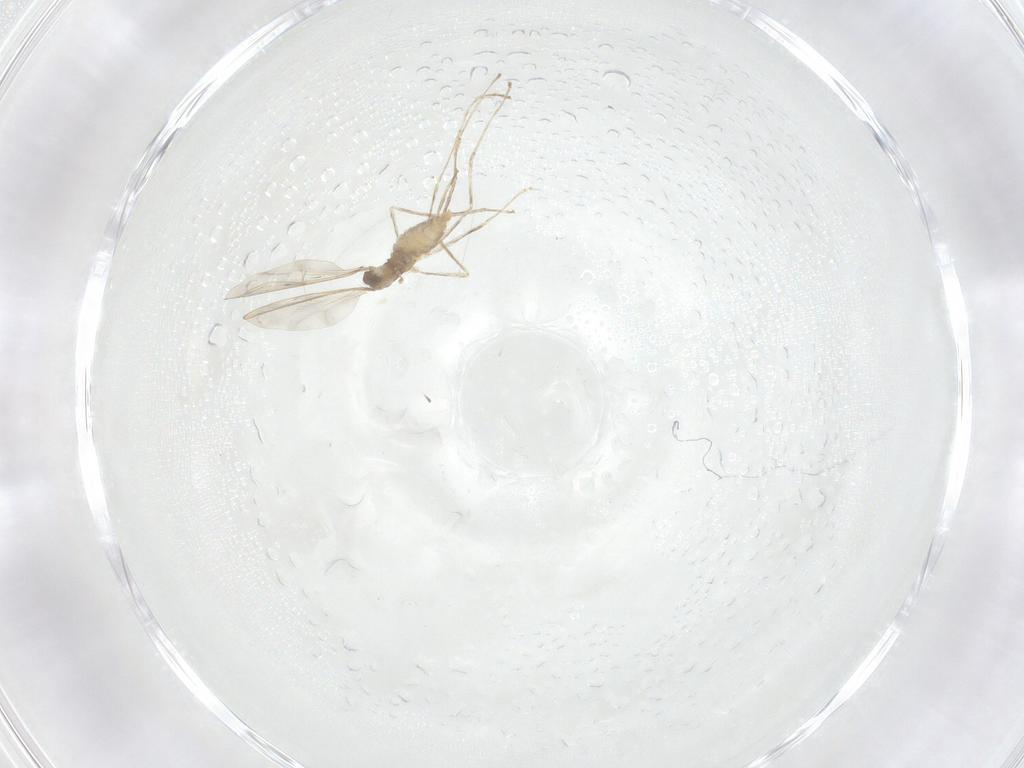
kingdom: Animalia
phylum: Arthropoda
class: Insecta
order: Diptera
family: Cecidomyiidae
